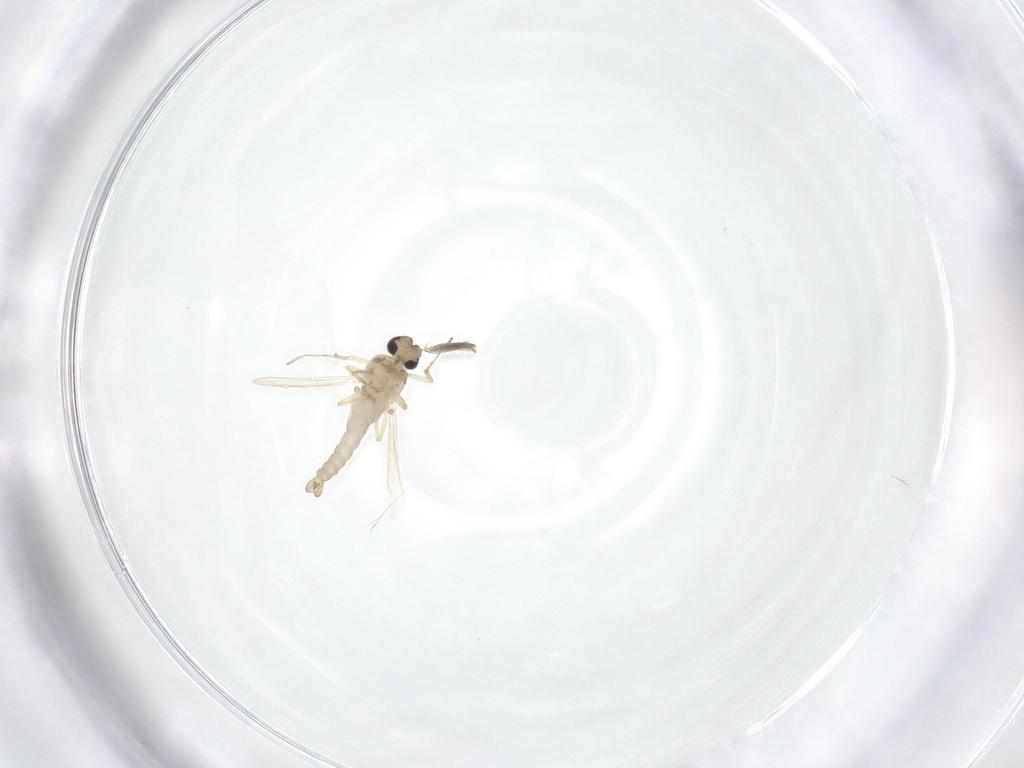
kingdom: Animalia
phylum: Arthropoda
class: Insecta
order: Diptera
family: Ceratopogonidae
